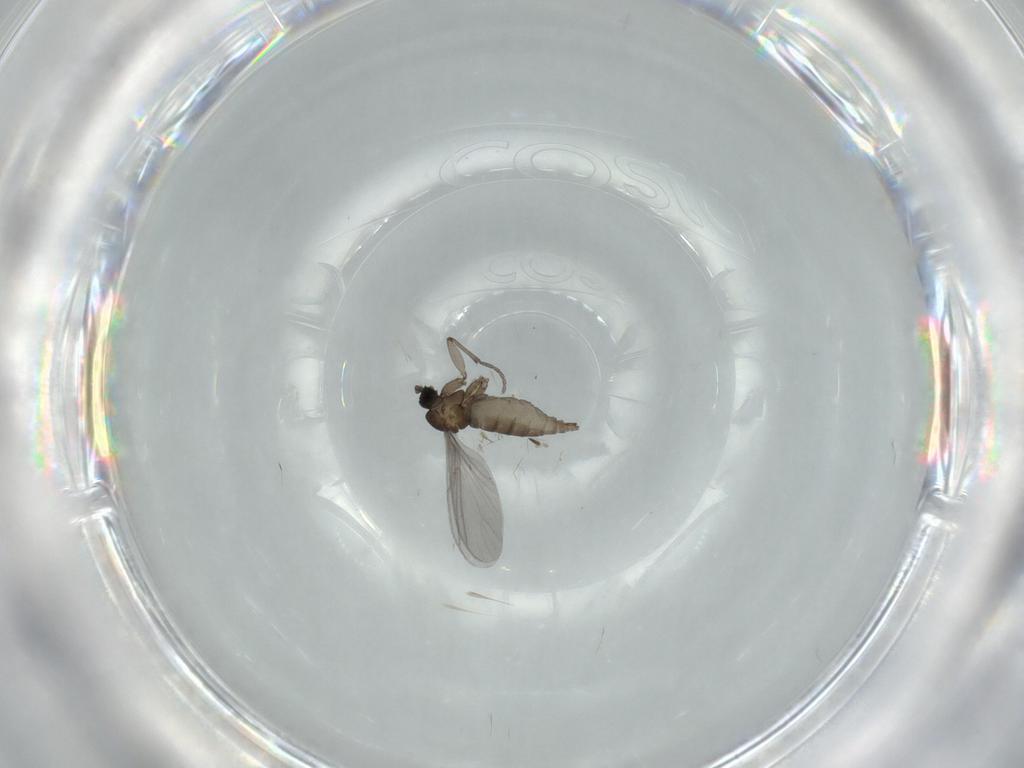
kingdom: Animalia
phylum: Arthropoda
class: Insecta
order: Diptera
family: Sciaridae
